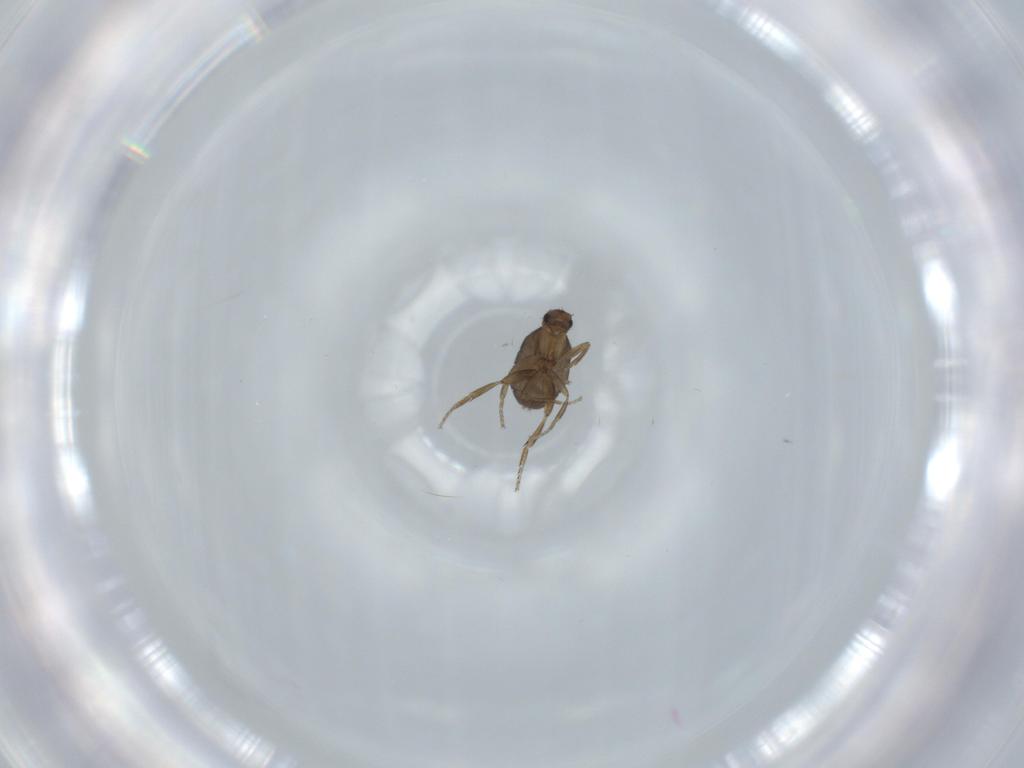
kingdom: Animalia
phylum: Arthropoda
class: Insecta
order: Diptera
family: Phoridae
